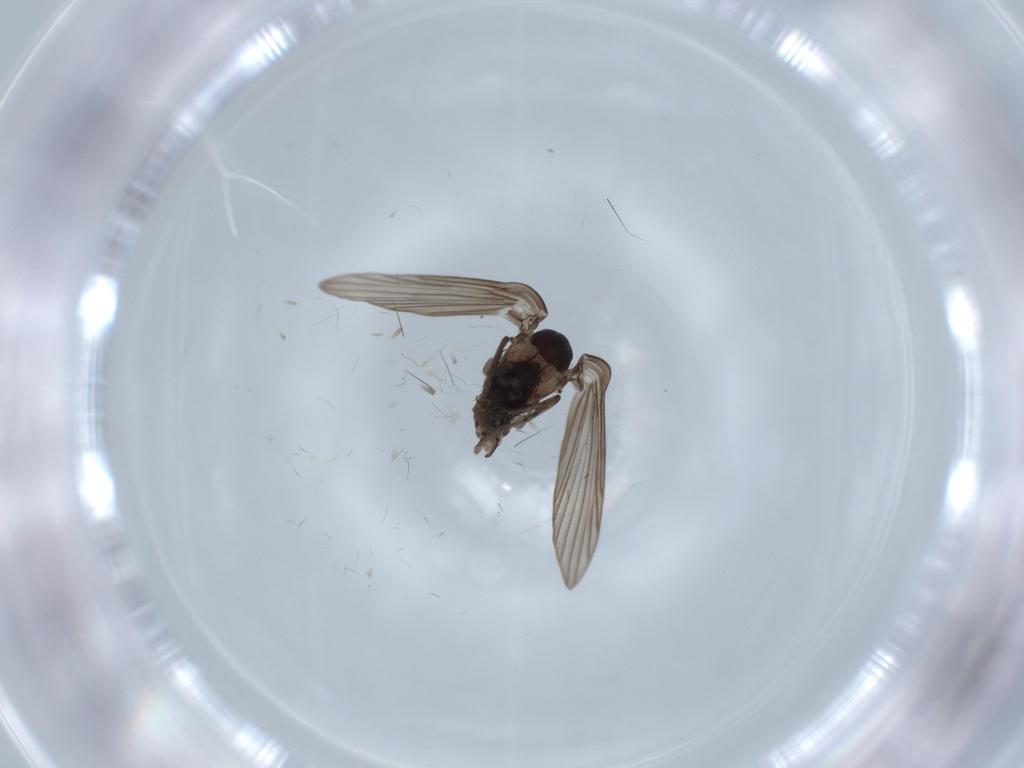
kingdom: Animalia
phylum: Arthropoda
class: Insecta
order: Diptera
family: Psychodidae
